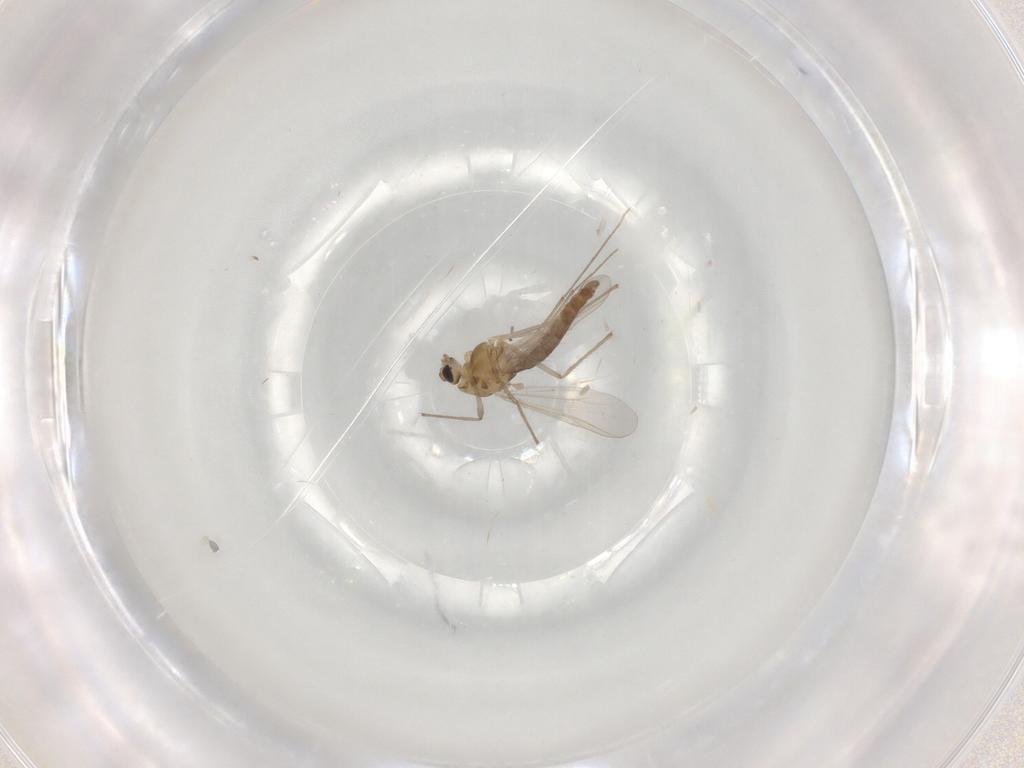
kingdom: Animalia
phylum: Arthropoda
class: Insecta
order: Diptera
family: Chironomidae
